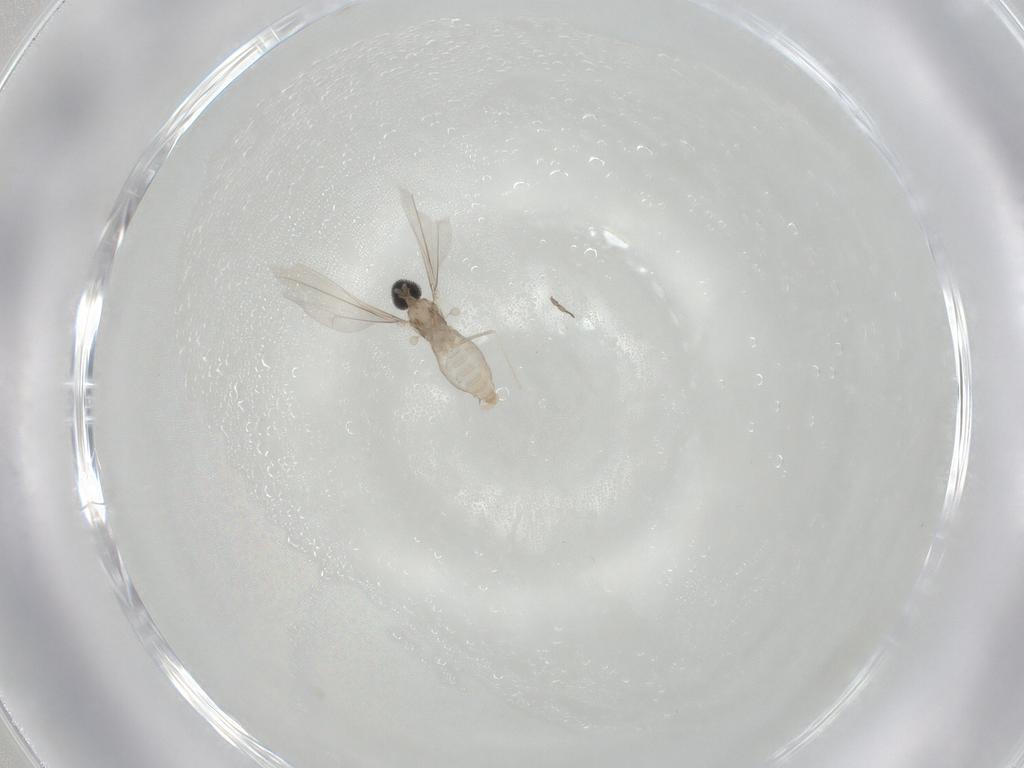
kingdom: Animalia
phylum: Arthropoda
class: Insecta
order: Diptera
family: Cecidomyiidae
